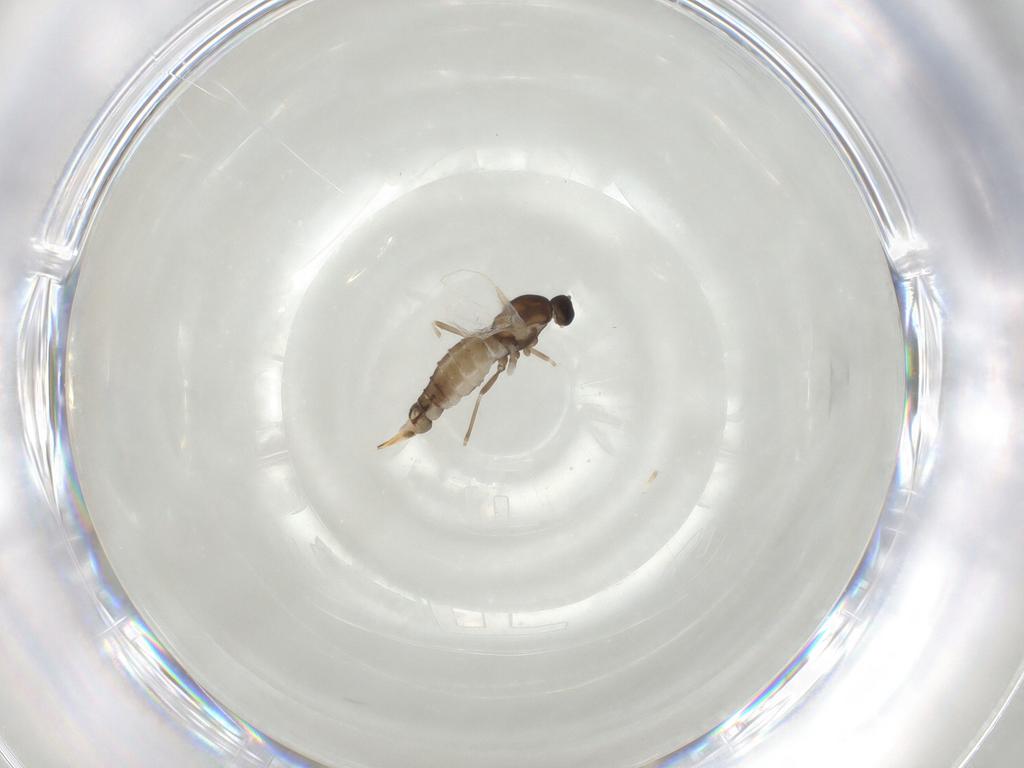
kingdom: Animalia
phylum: Arthropoda
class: Insecta
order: Diptera
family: Cecidomyiidae
